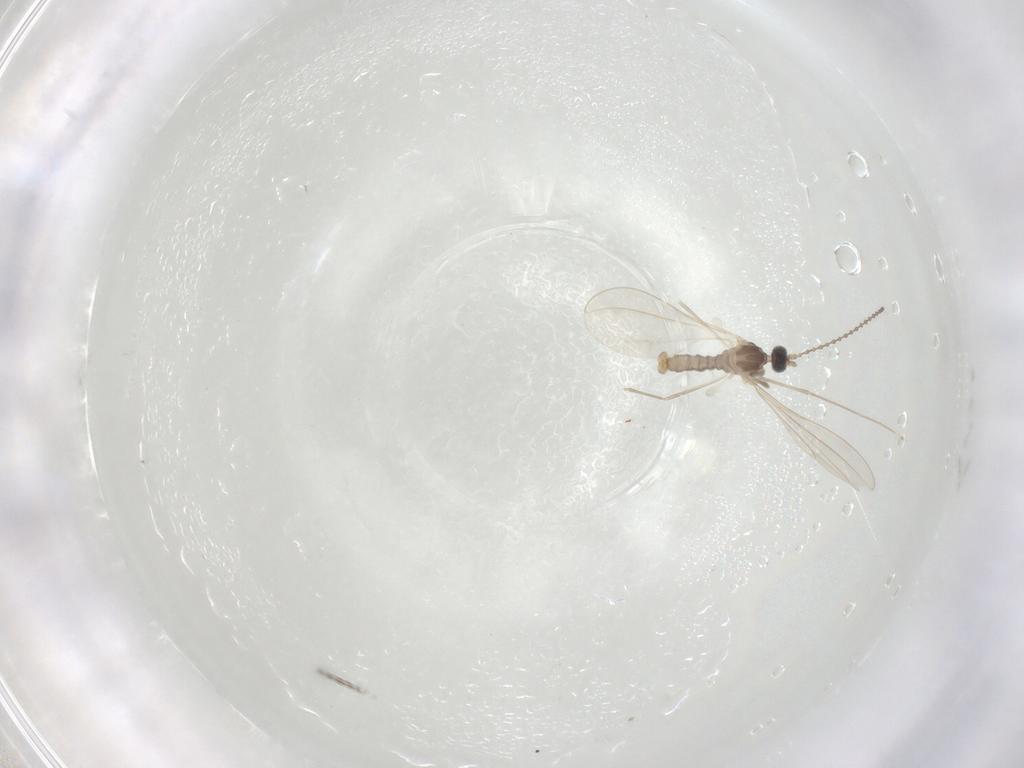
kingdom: Animalia
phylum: Arthropoda
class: Insecta
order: Diptera
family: Cecidomyiidae
